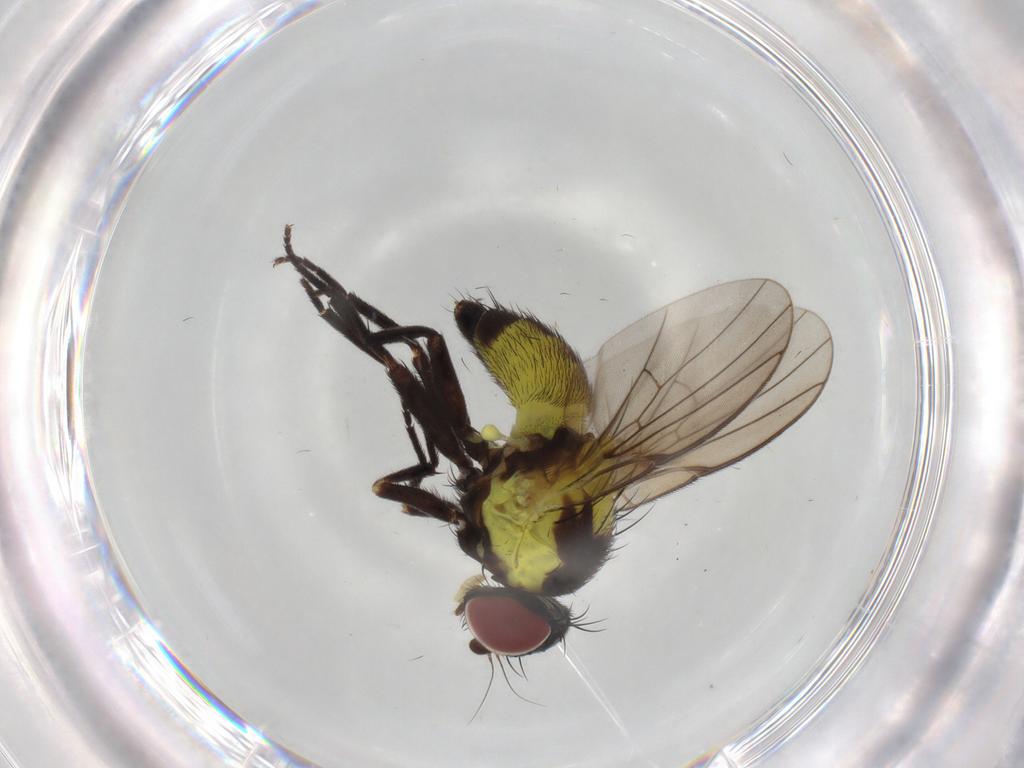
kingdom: Animalia
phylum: Arthropoda
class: Insecta
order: Diptera
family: Agromyzidae
